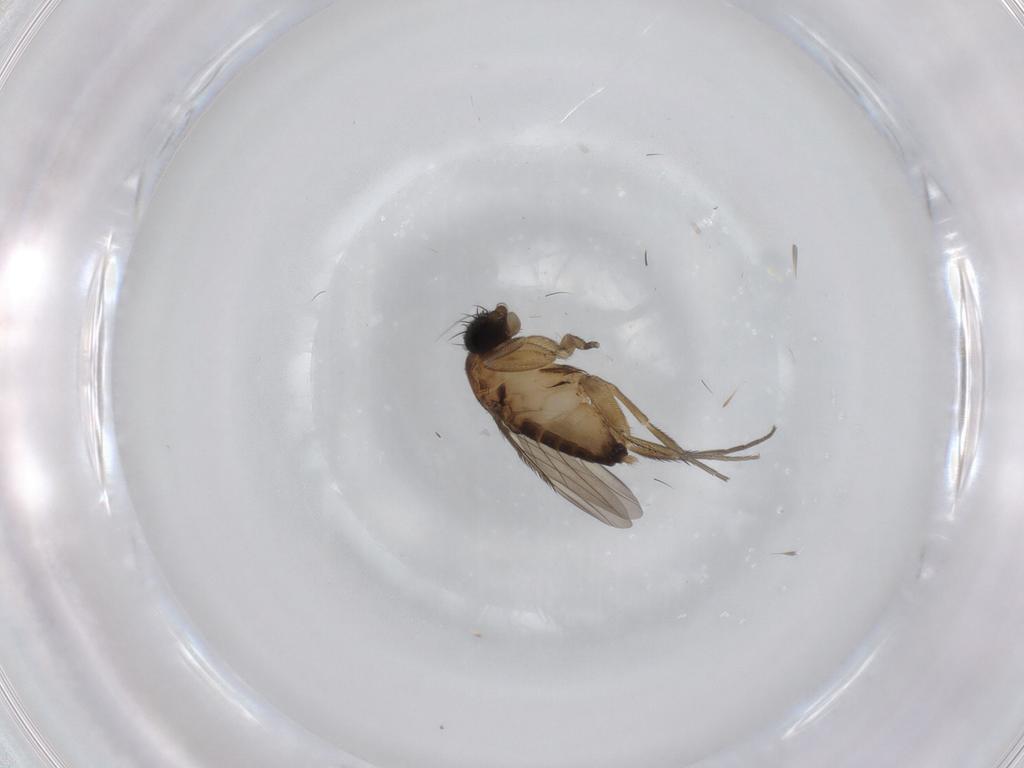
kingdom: Animalia
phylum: Arthropoda
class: Insecta
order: Diptera
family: Phoridae
